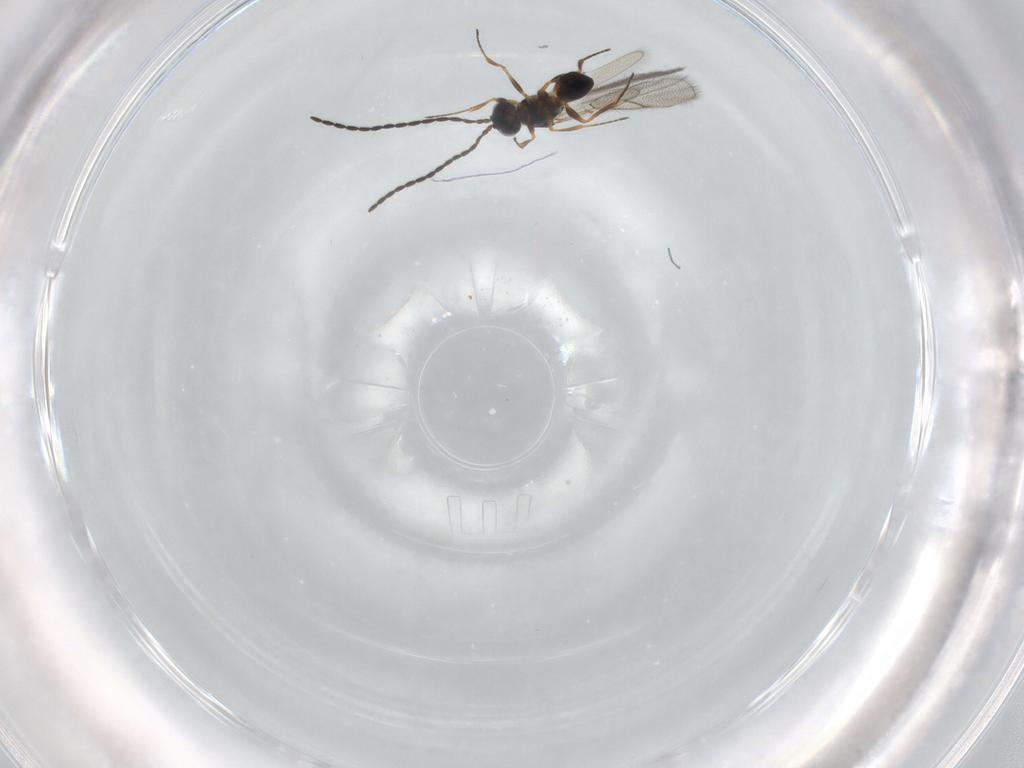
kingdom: Animalia
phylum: Arthropoda
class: Insecta
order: Hymenoptera
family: Figitidae
